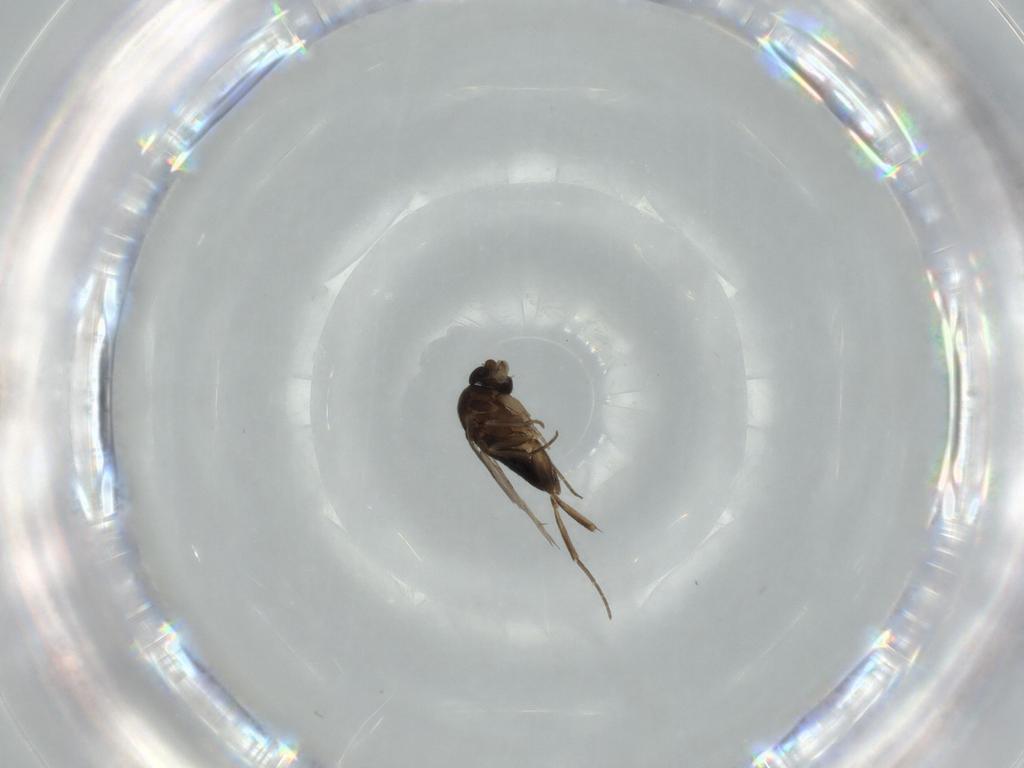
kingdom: Animalia
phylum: Arthropoda
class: Insecta
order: Diptera
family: Phoridae
